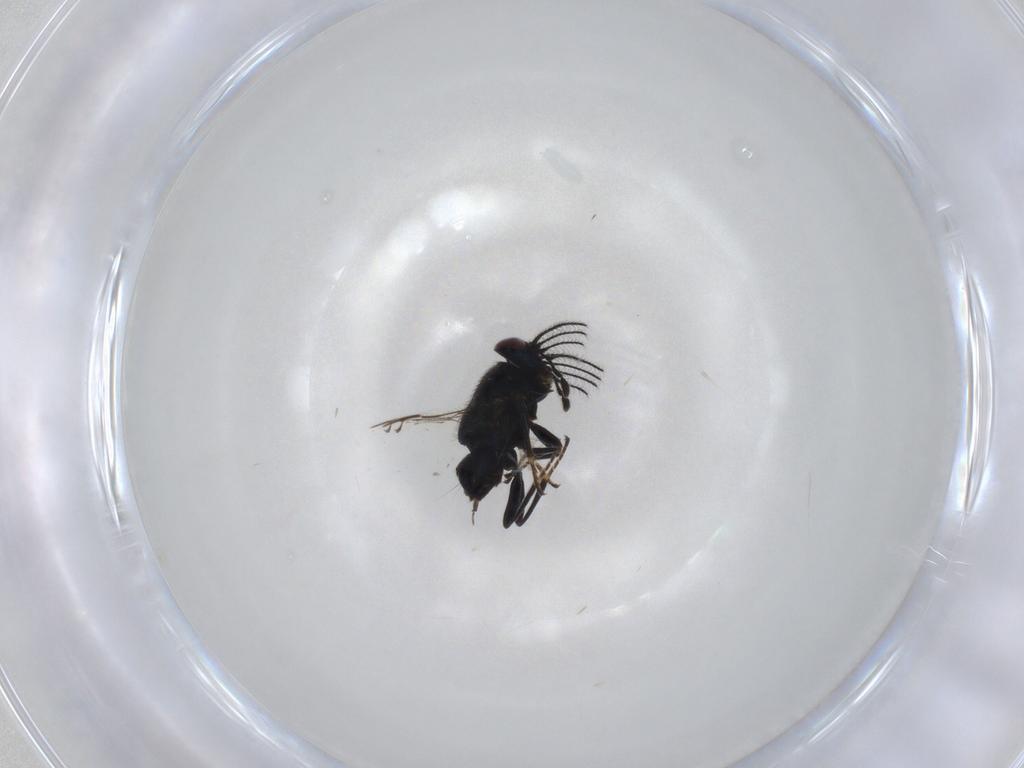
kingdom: Animalia
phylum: Arthropoda
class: Insecta
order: Hymenoptera
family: Encyrtidae
